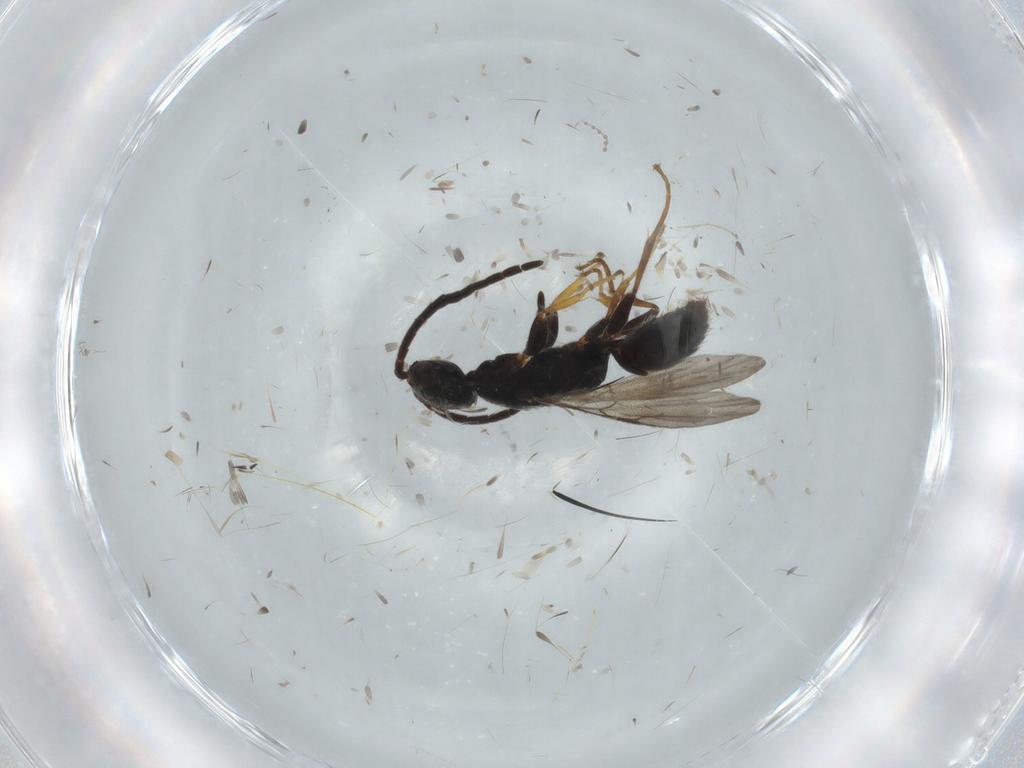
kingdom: Animalia
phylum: Arthropoda
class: Insecta
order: Hymenoptera
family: Bethylidae
